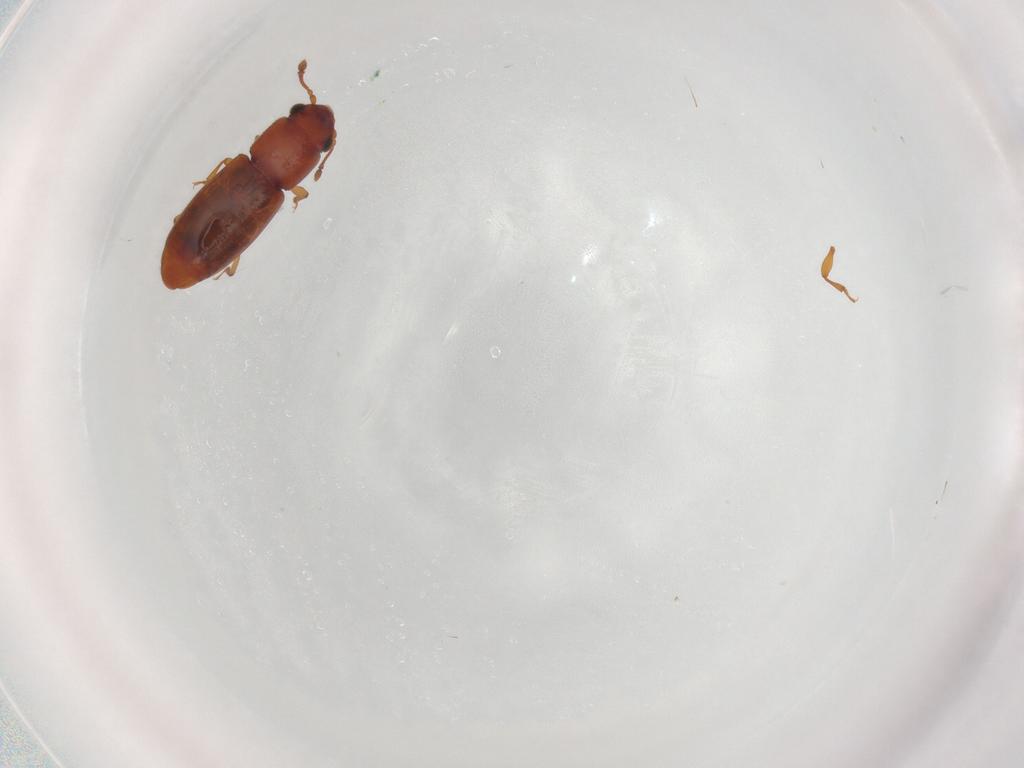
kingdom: Animalia
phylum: Arthropoda
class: Insecta
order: Coleoptera
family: Monotomidae
